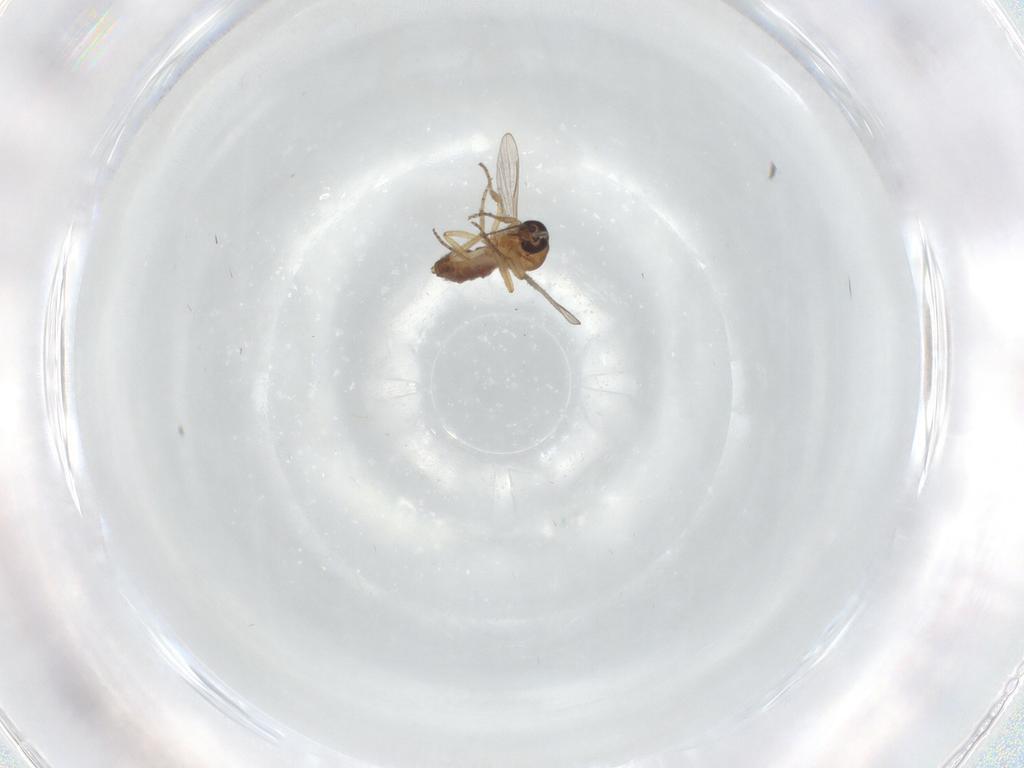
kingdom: Animalia
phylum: Arthropoda
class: Insecta
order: Diptera
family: Ceratopogonidae
